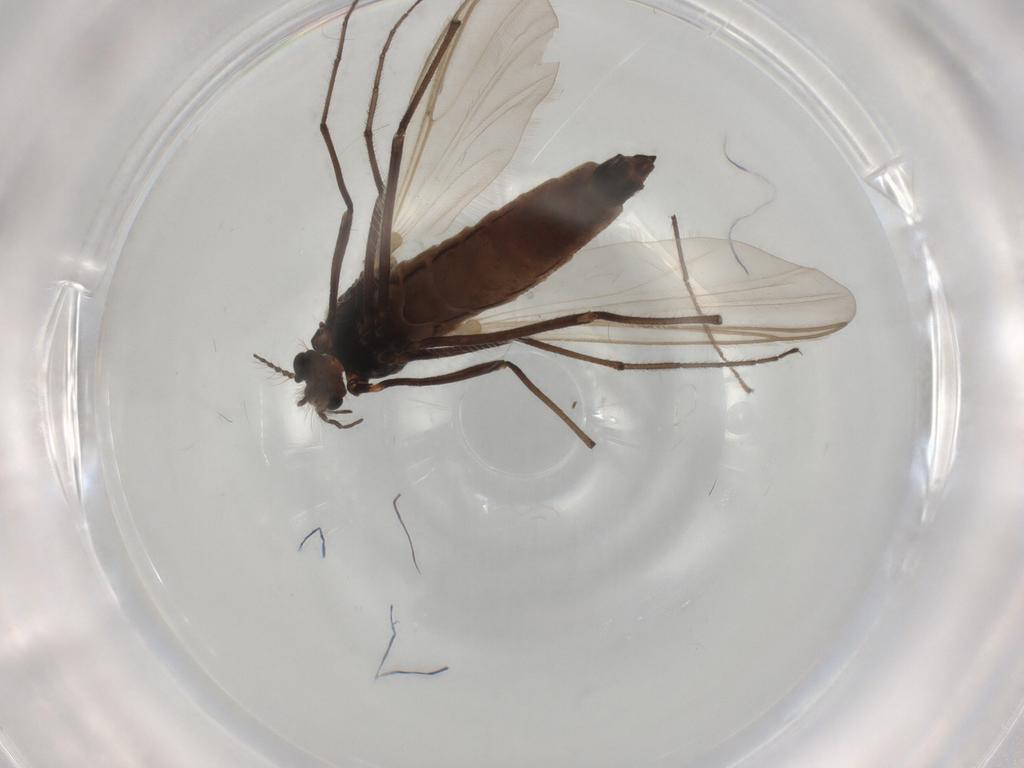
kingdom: Animalia
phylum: Arthropoda
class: Insecta
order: Diptera
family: Chironomidae
